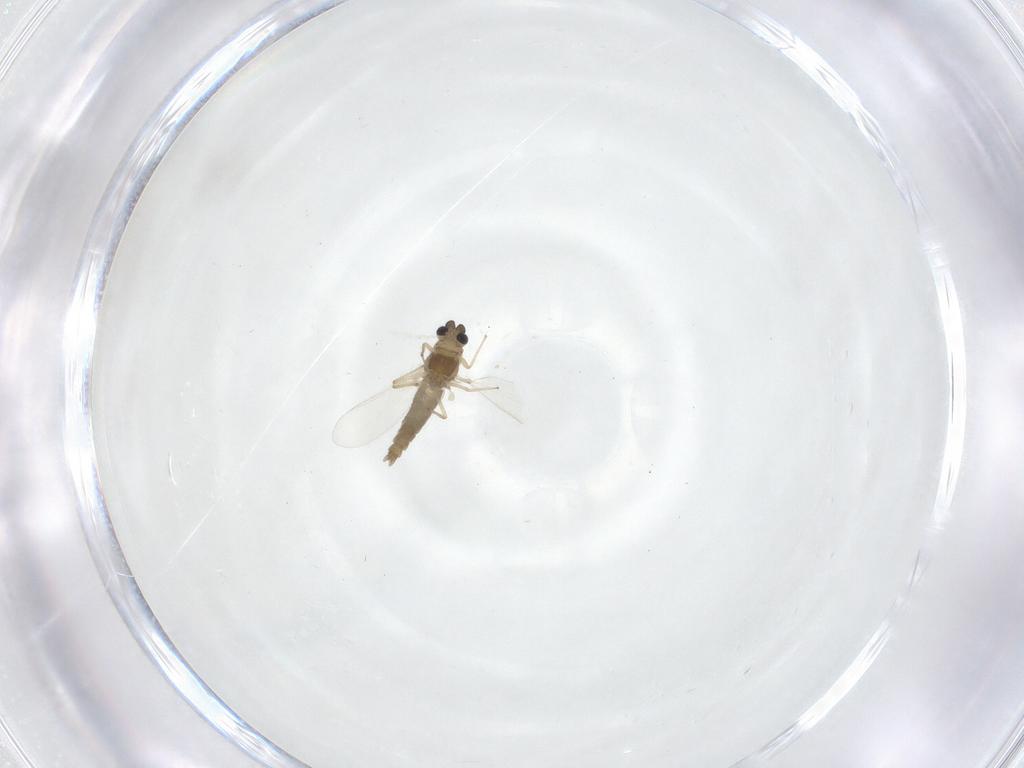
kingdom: Animalia
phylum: Arthropoda
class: Insecta
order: Diptera
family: Chironomidae
